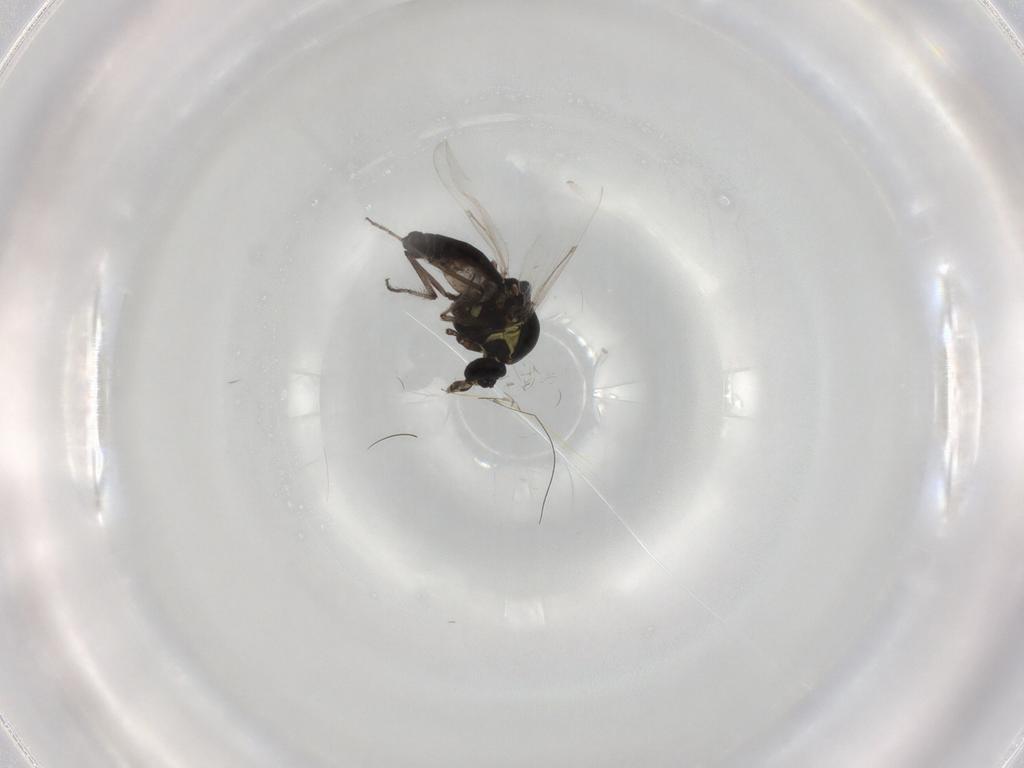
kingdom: Animalia
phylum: Arthropoda
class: Insecta
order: Diptera
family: Ceratopogonidae
